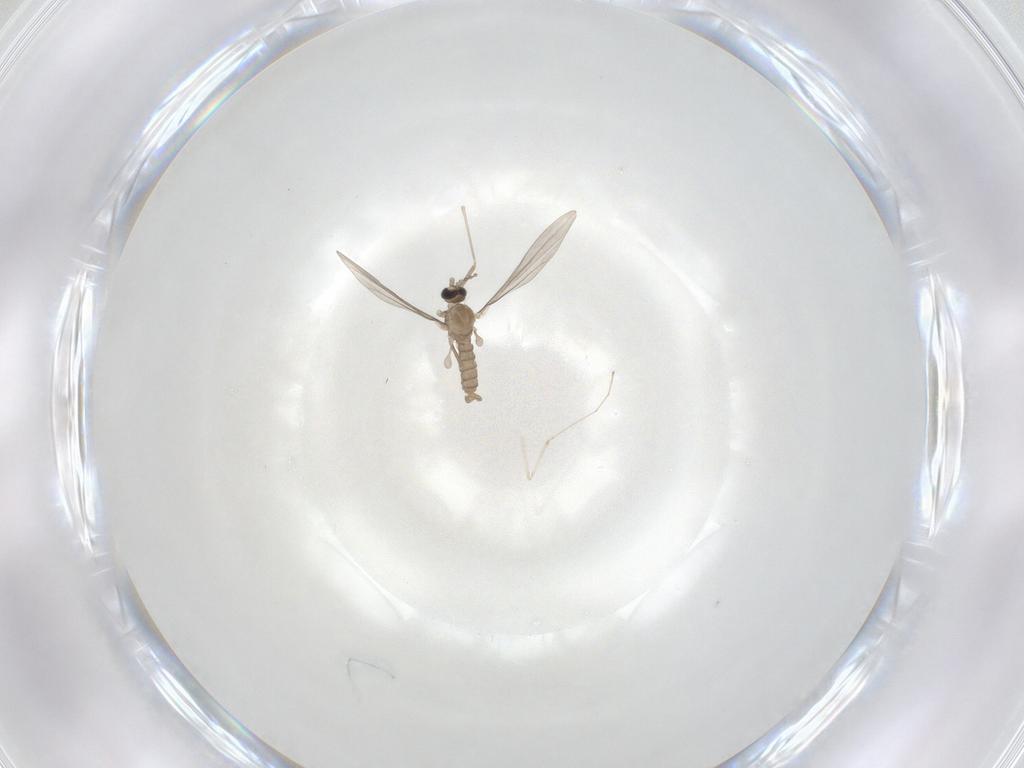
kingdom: Animalia
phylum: Arthropoda
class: Insecta
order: Diptera
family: Cecidomyiidae
